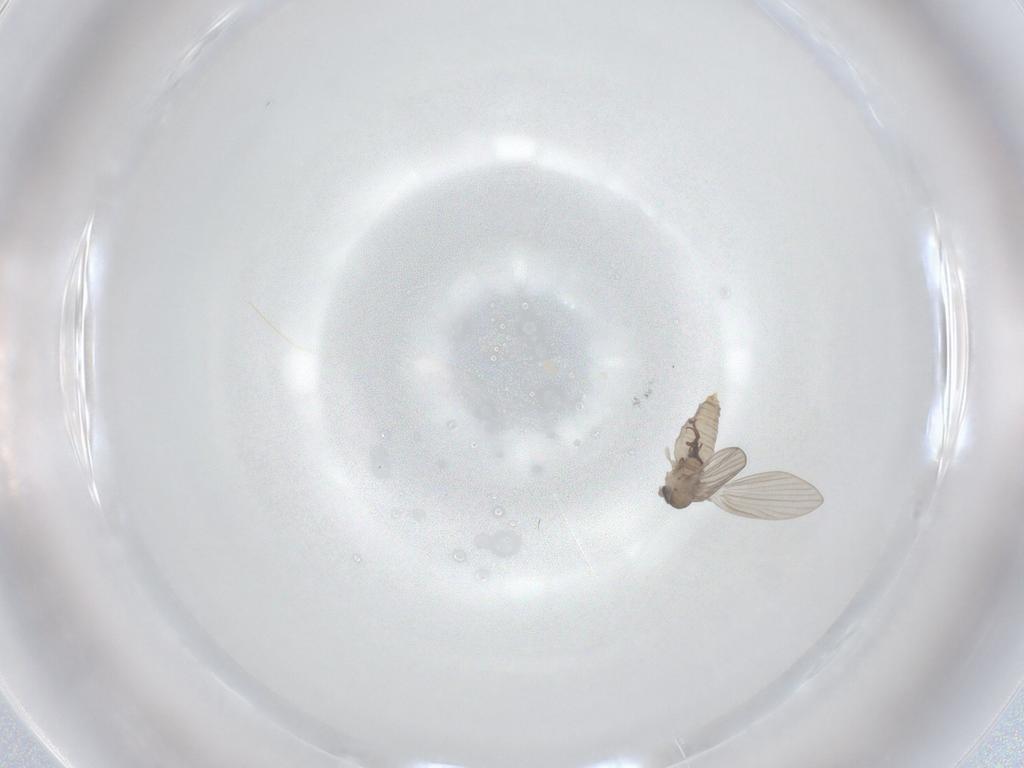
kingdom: Animalia
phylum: Arthropoda
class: Insecta
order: Diptera
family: Psychodidae
